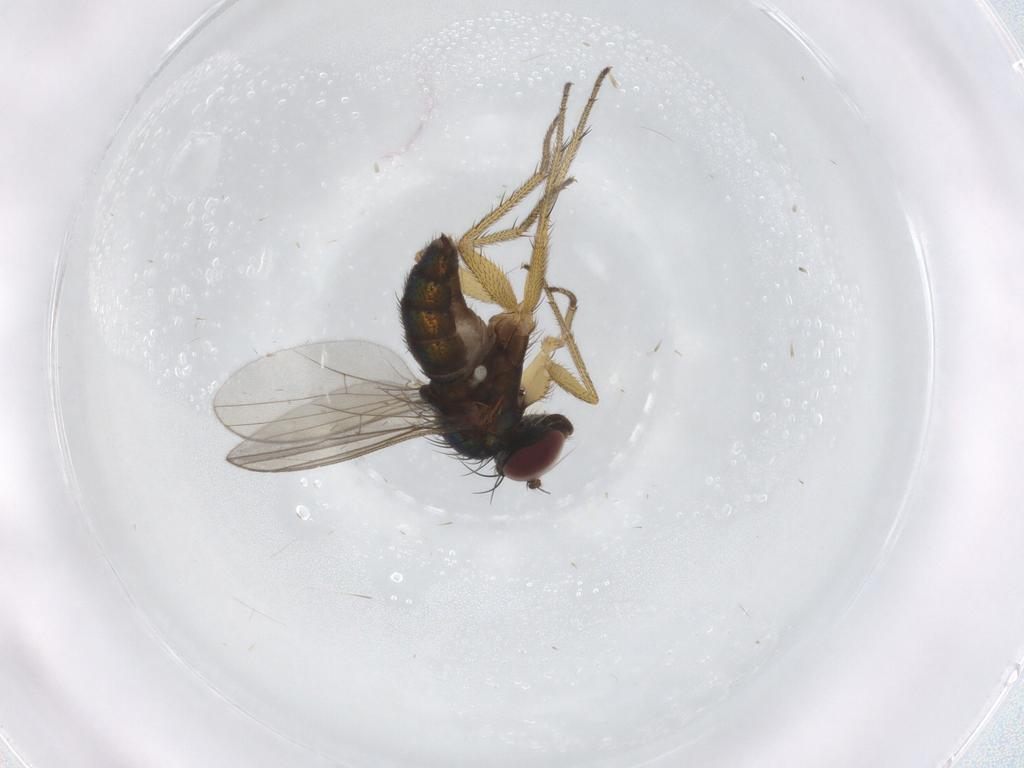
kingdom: Animalia
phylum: Arthropoda
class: Insecta
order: Diptera
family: Dolichopodidae
